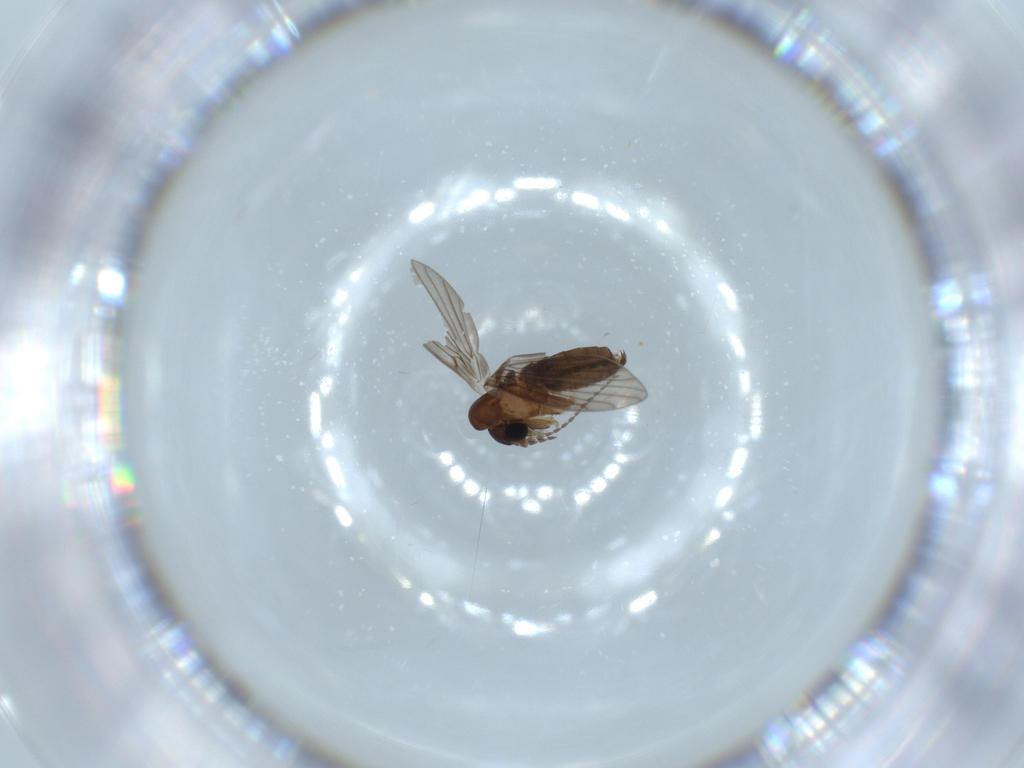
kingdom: Animalia
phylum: Arthropoda
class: Insecta
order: Diptera
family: Psychodidae
